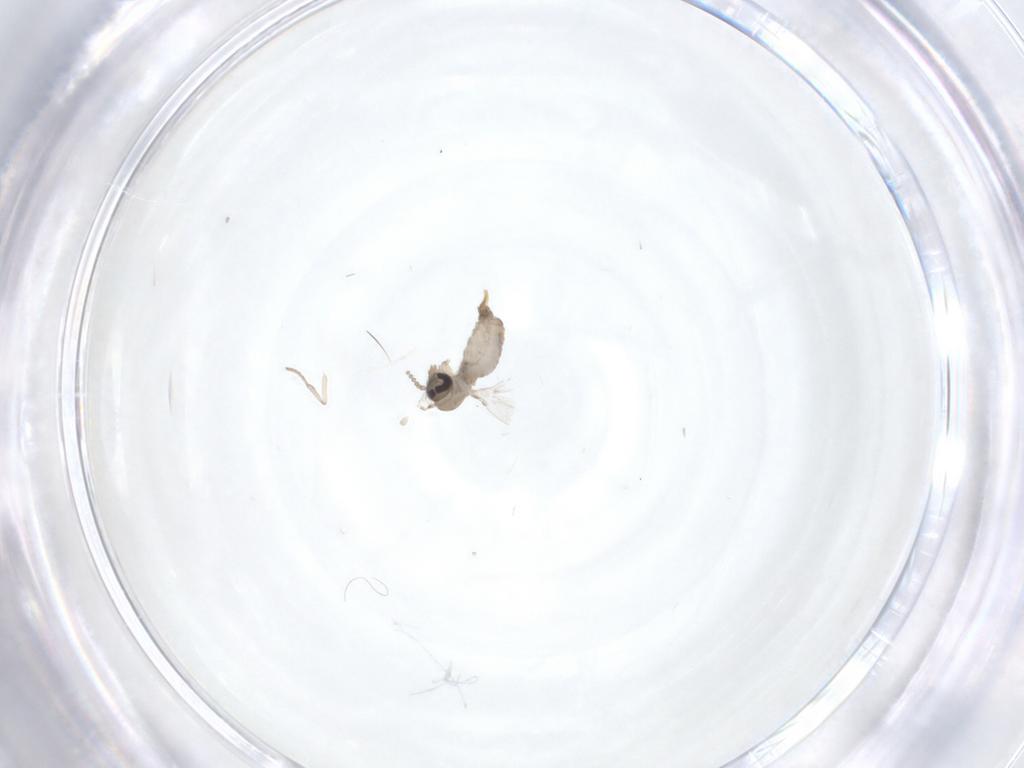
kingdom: Animalia
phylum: Arthropoda
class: Insecta
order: Diptera
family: Psychodidae
